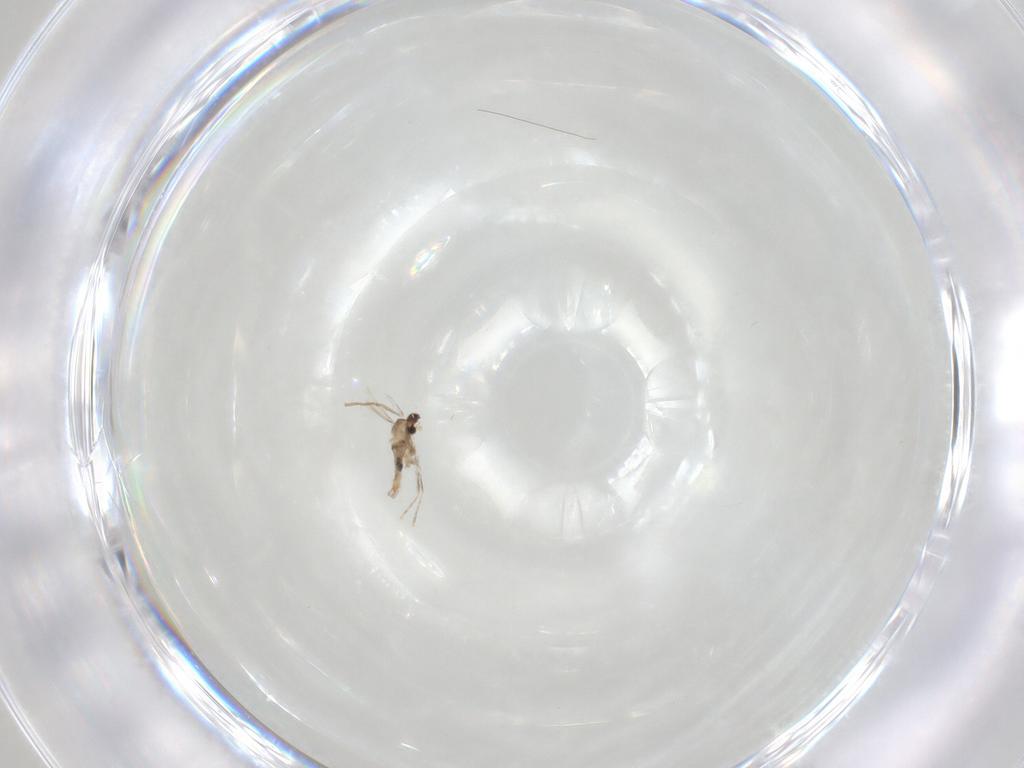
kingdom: Animalia
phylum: Arthropoda
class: Insecta
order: Diptera
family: Cecidomyiidae
